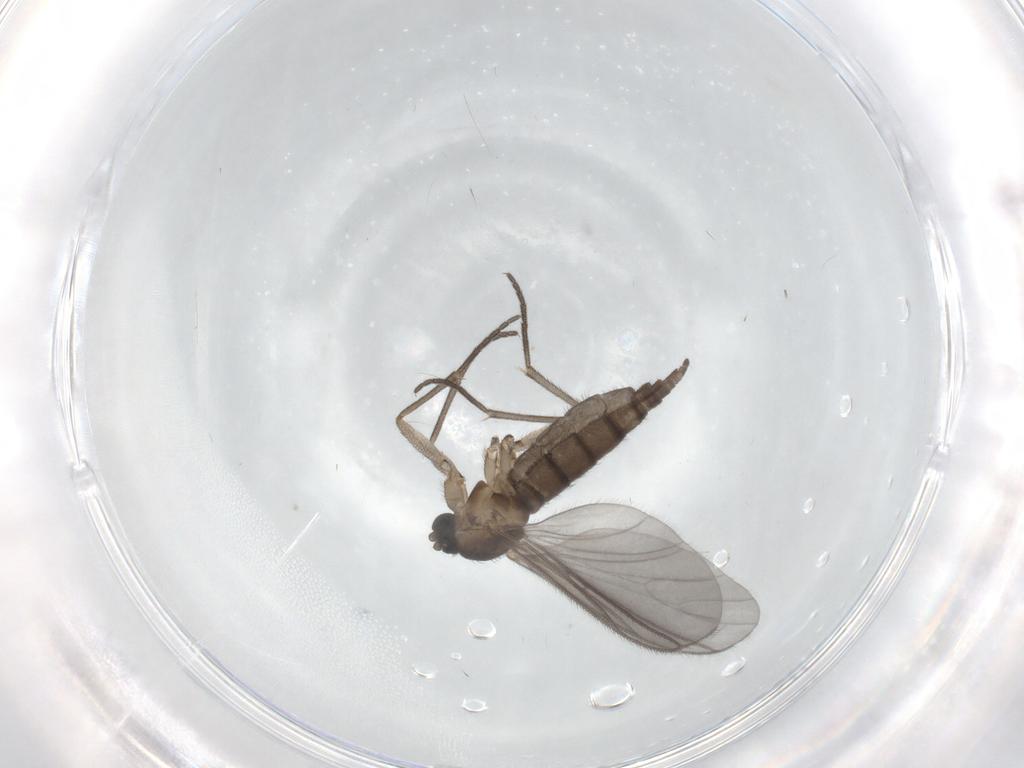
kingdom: Animalia
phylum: Arthropoda
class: Insecta
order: Diptera
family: Sciaridae
